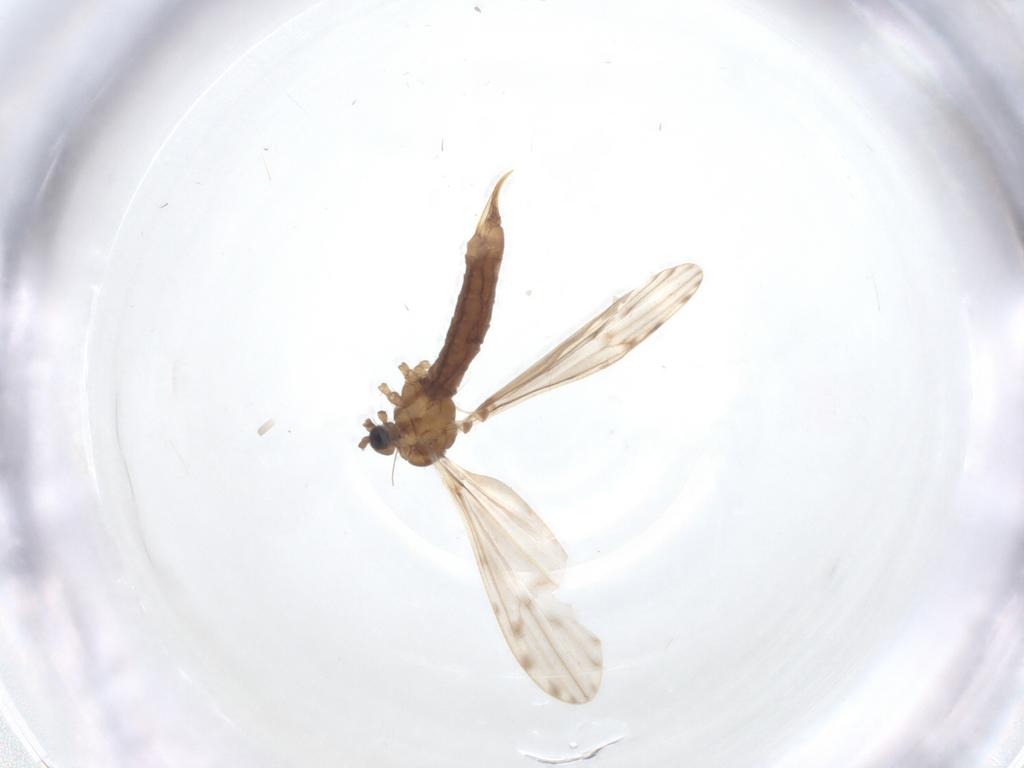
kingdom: Animalia
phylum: Arthropoda
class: Insecta
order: Diptera
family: Limoniidae
